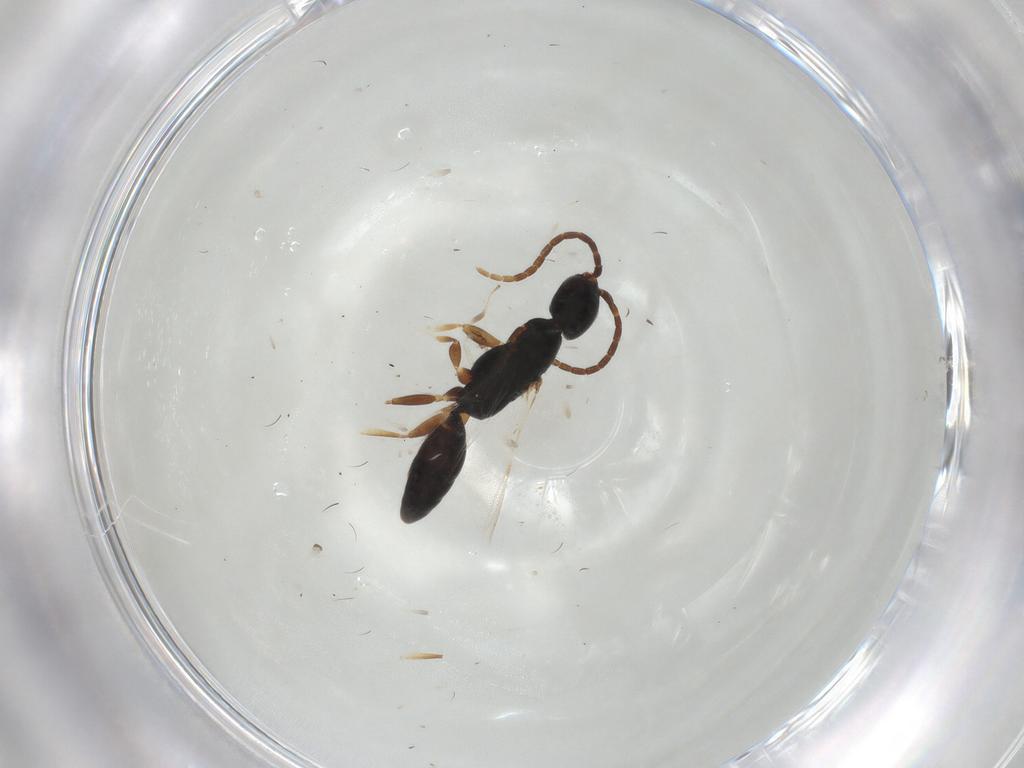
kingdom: Animalia
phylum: Arthropoda
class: Insecta
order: Hymenoptera
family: Bethylidae
